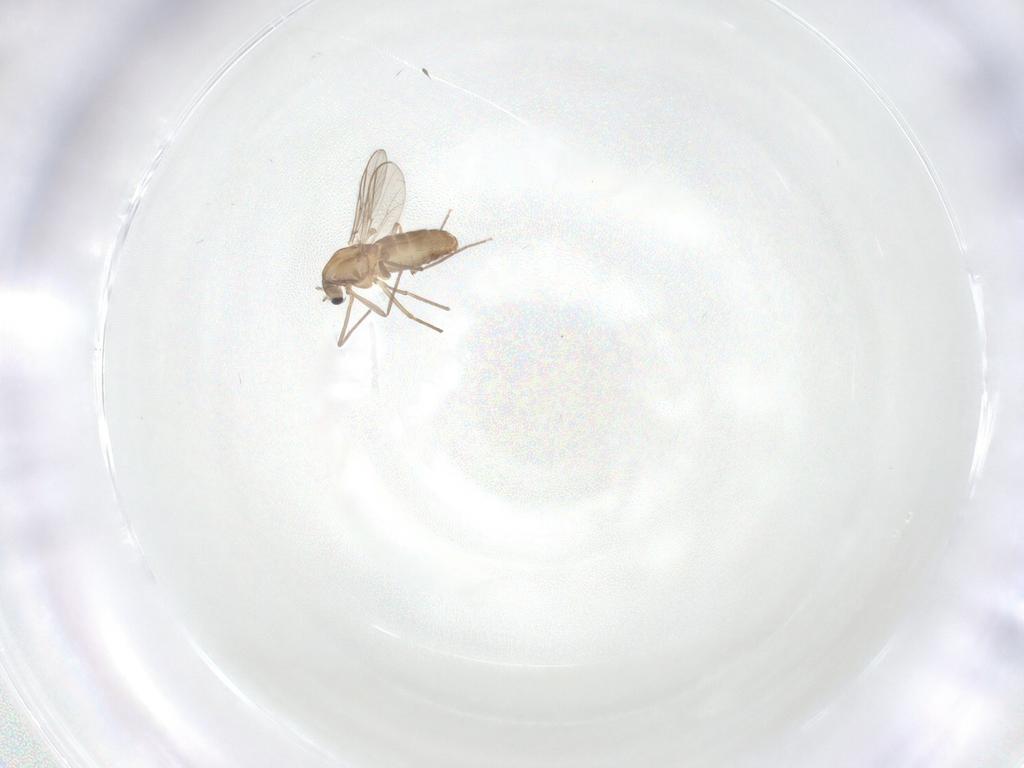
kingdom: Animalia
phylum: Arthropoda
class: Insecta
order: Diptera
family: Chironomidae
